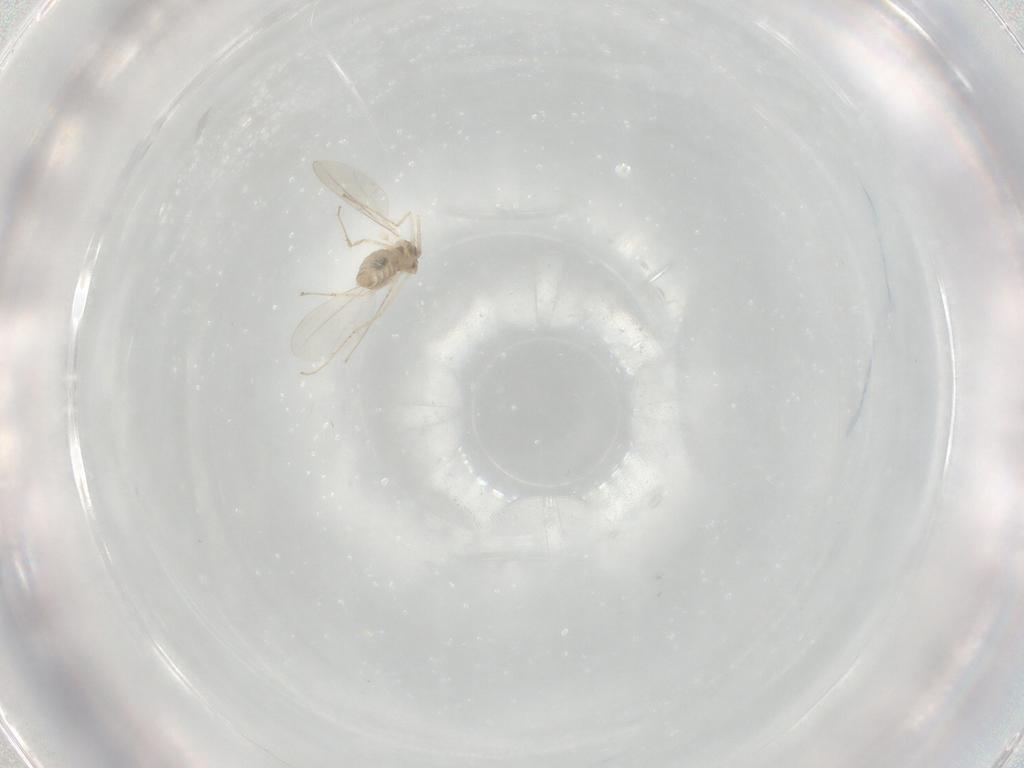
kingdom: Animalia
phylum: Arthropoda
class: Insecta
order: Diptera
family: Cecidomyiidae
